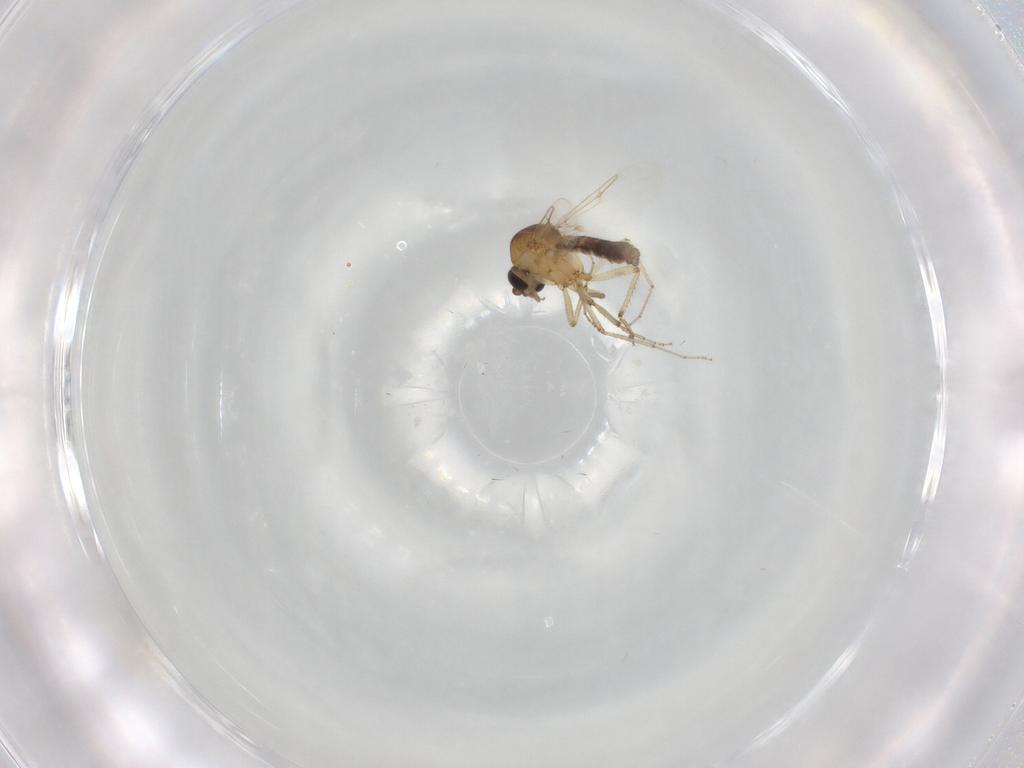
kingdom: Animalia
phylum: Arthropoda
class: Insecta
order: Diptera
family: Ceratopogonidae
